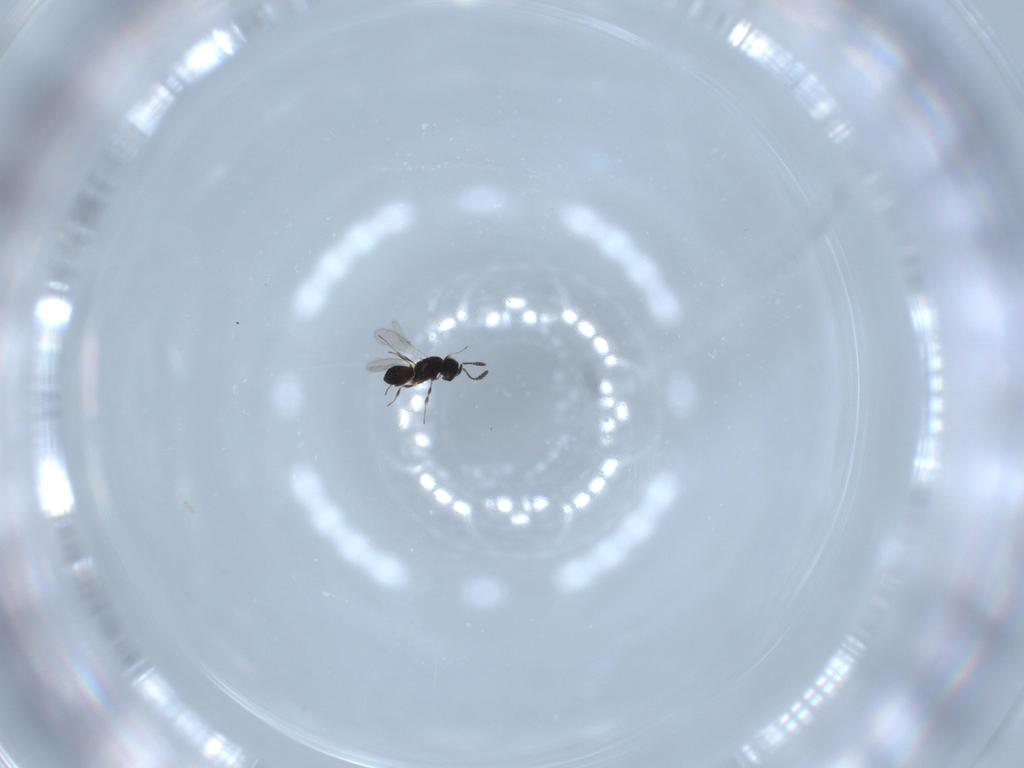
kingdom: Animalia
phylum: Arthropoda
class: Insecta
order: Hymenoptera
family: Scelionidae
